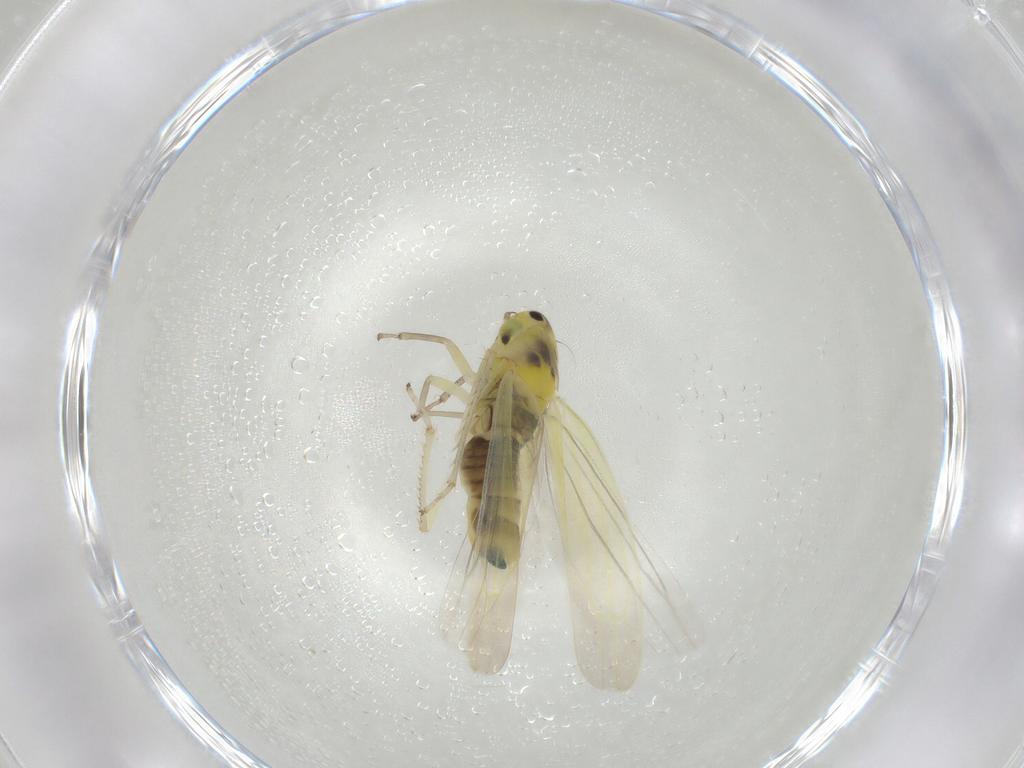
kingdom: Animalia
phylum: Arthropoda
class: Insecta
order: Hemiptera
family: Cicadellidae
